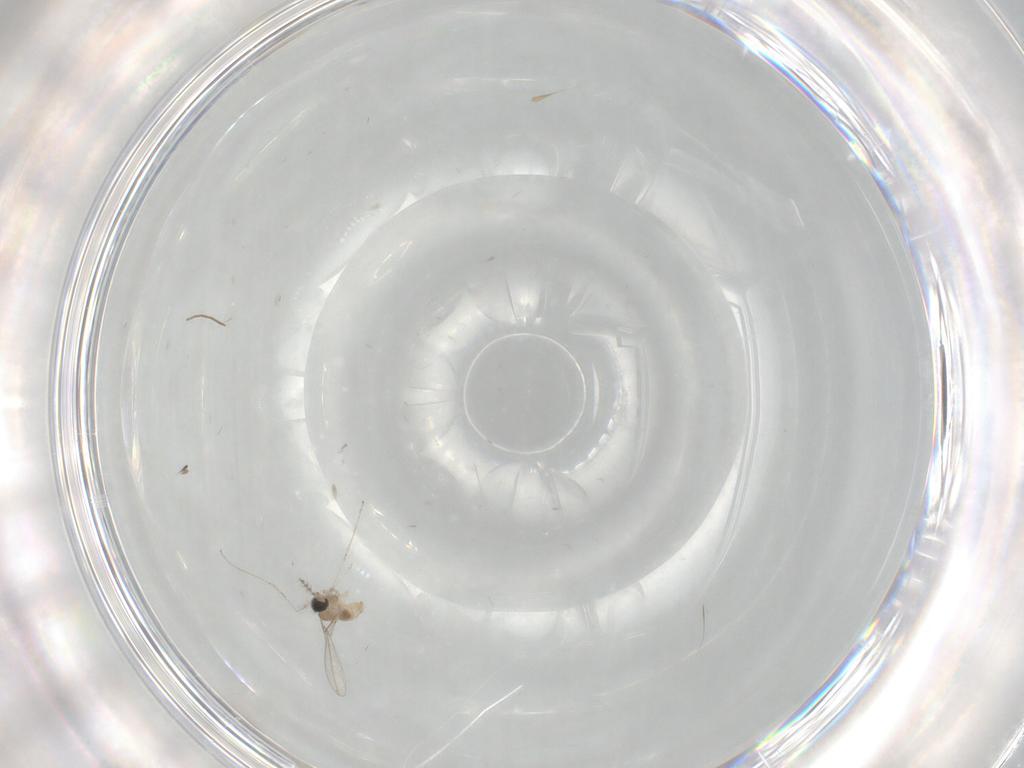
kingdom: Animalia
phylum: Arthropoda
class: Insecta
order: Diptera
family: Cecidomyiidae
